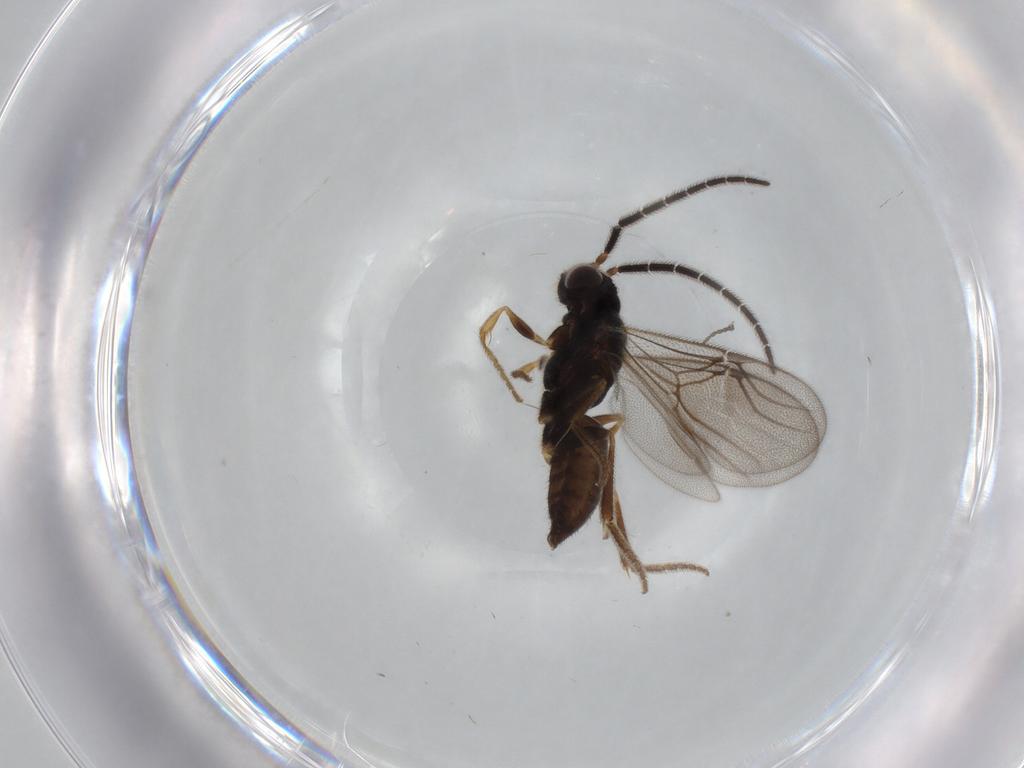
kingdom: Animalia
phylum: Arthropoda
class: Insecta
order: Hymenoptera
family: Dryinidae
